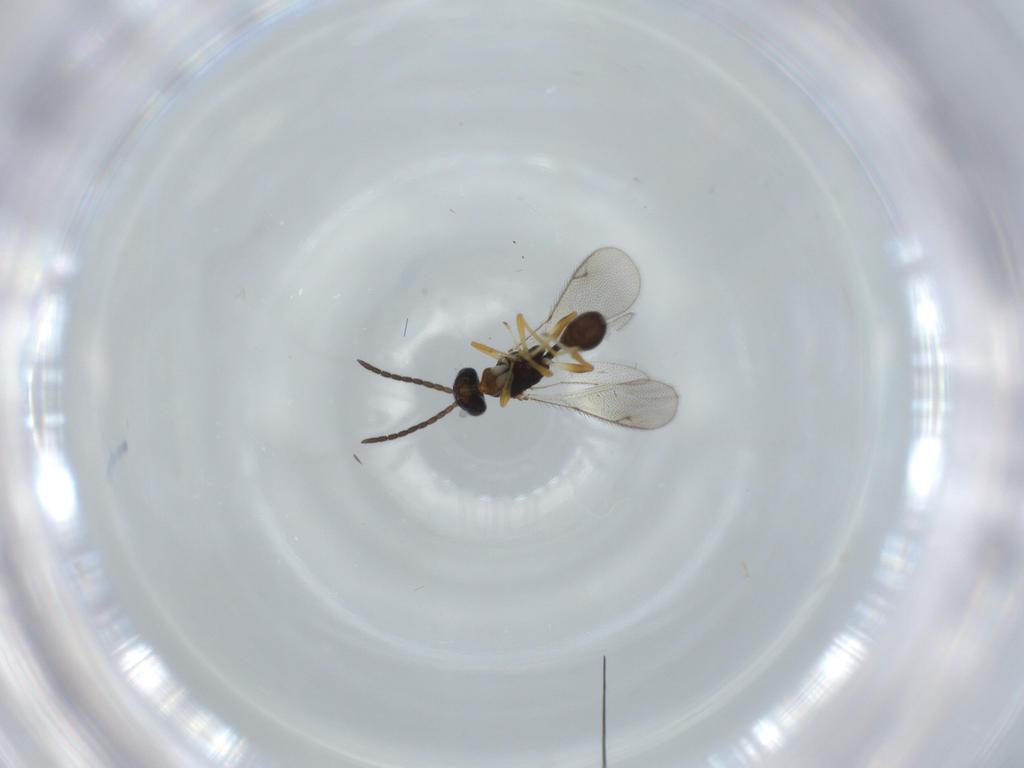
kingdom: Animalia
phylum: Arthropoda
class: Insecta
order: Hymenoptera
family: Diparidae
